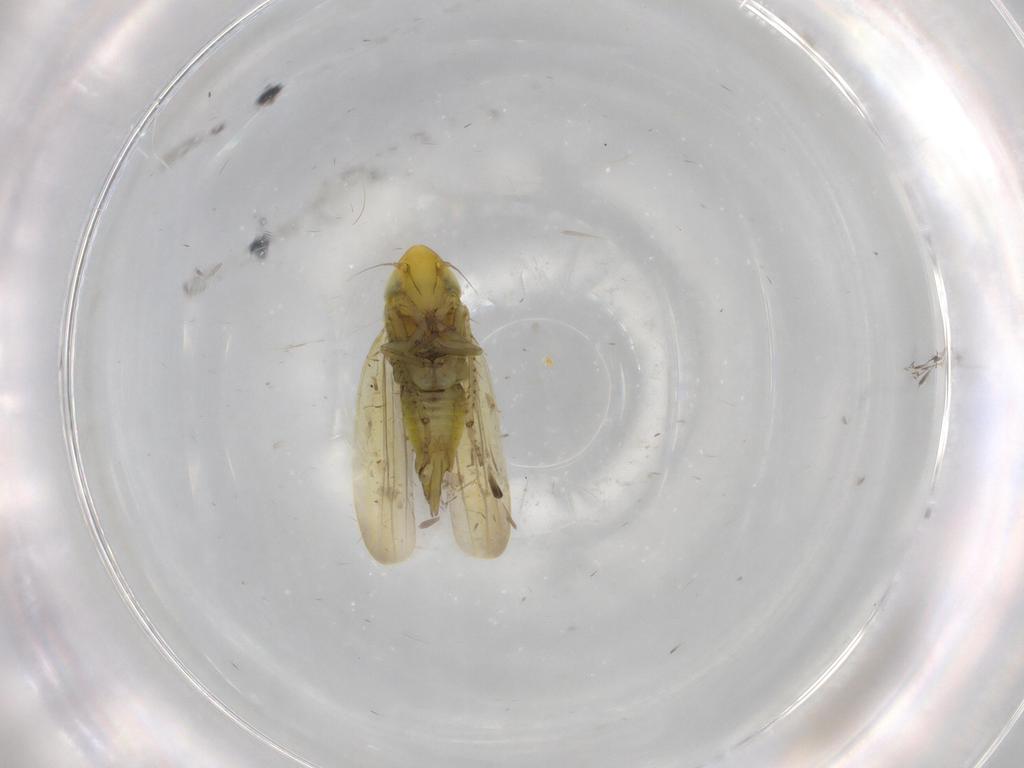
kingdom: Animalia
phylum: Arthropoda
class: Insecta
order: Hemiptera
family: Cicadellidae
